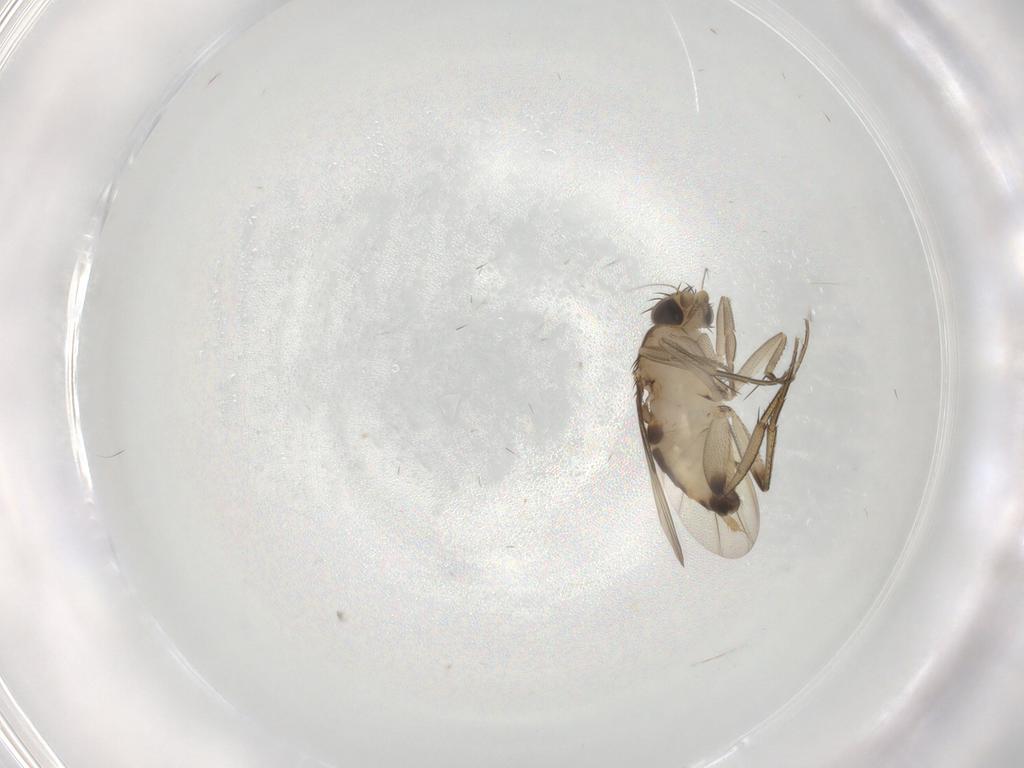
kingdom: Animalia
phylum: Arthropoda
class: Insecta
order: Diptera
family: Phoridae
